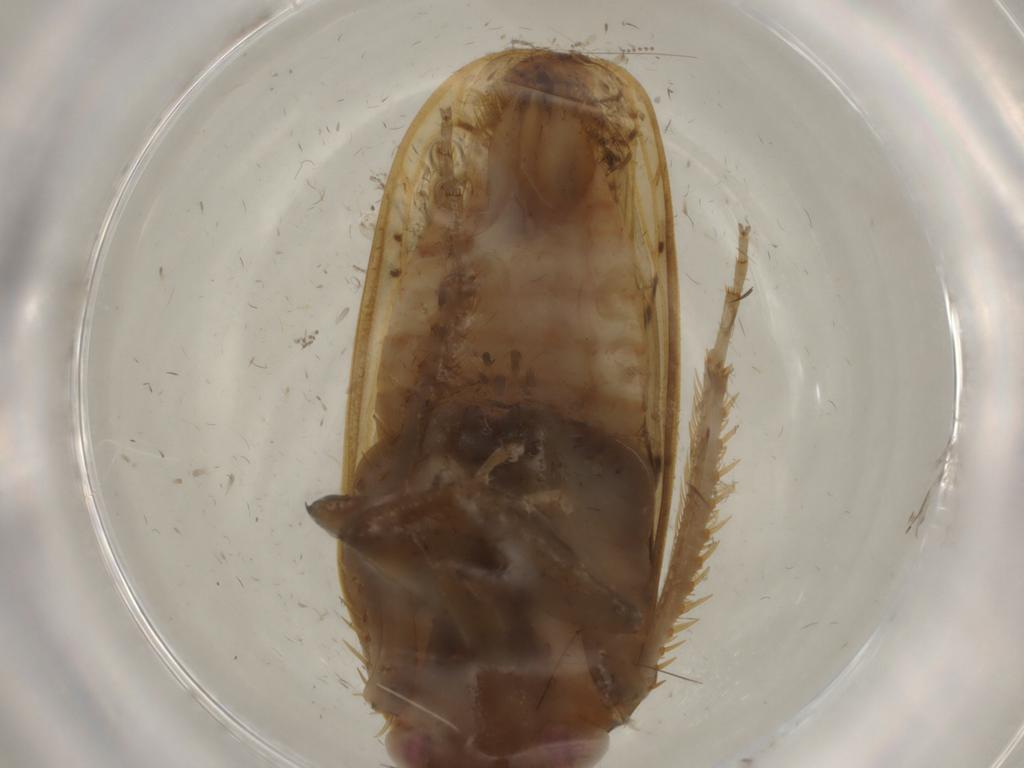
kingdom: Animalia
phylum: Arthropoda
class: Insecta
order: Hemiptera
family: Cicadellidae
